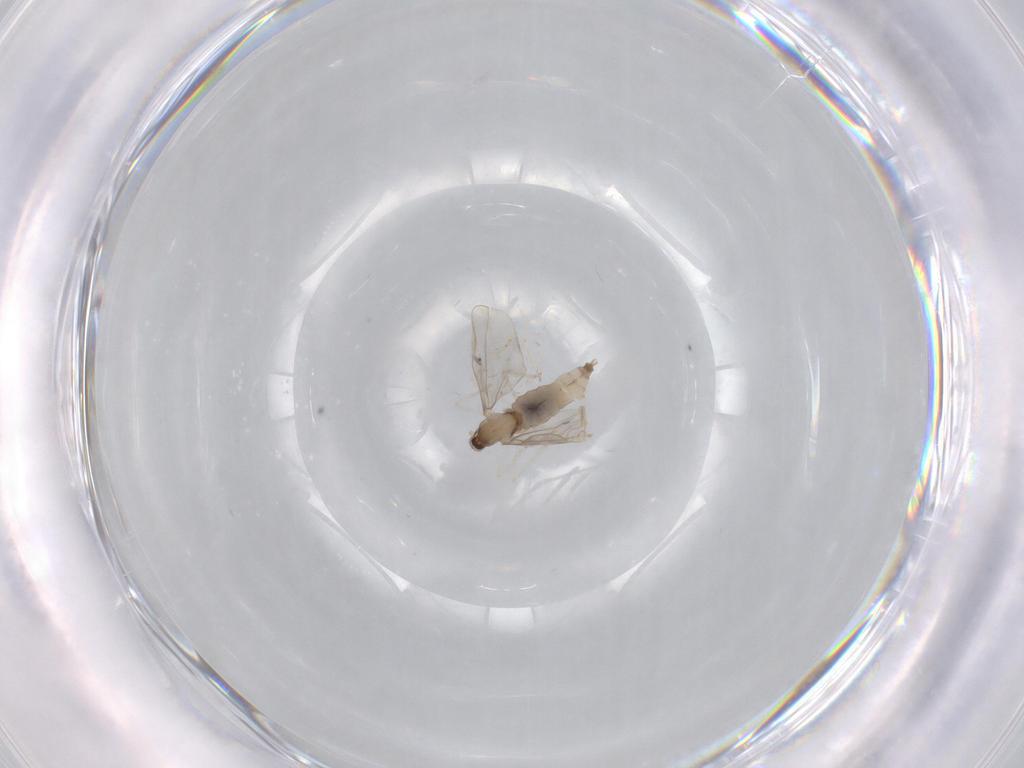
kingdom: Animalia
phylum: Arthropoda
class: Insecta
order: Diptera
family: Cecidomyiidae
